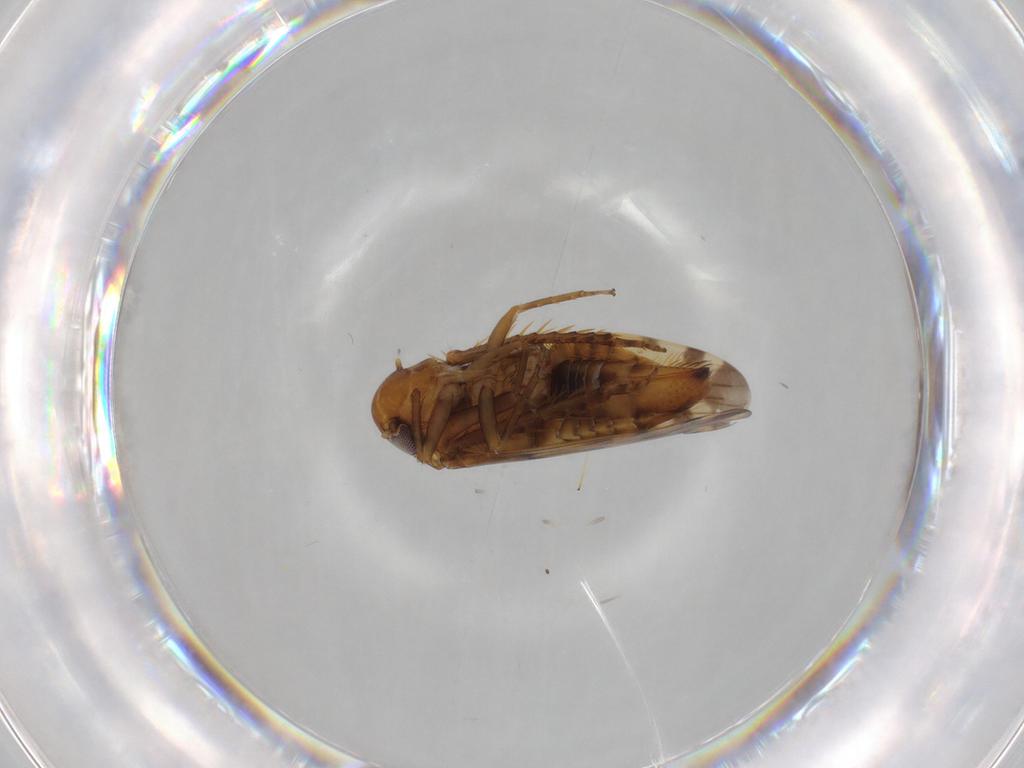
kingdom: Animalia
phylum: Arthropoda
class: Insecta
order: Hemiptera
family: Cicadellidae
